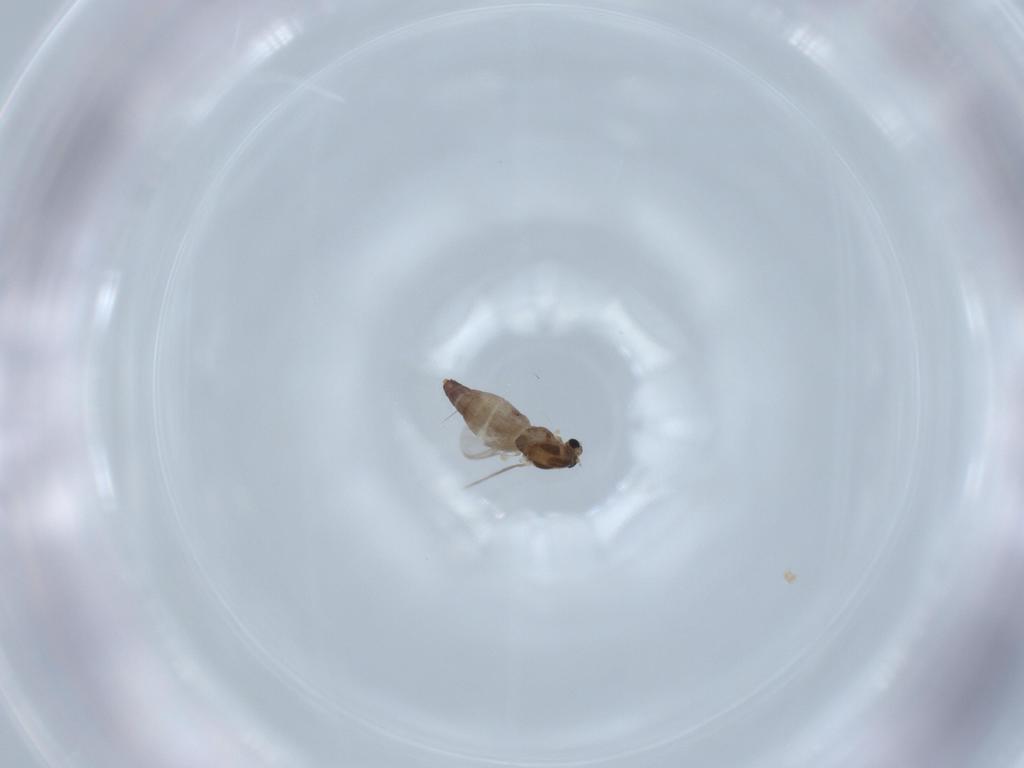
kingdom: Animalia
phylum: Arthropoda
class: Insecta
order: Diptera
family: Chironomidae
